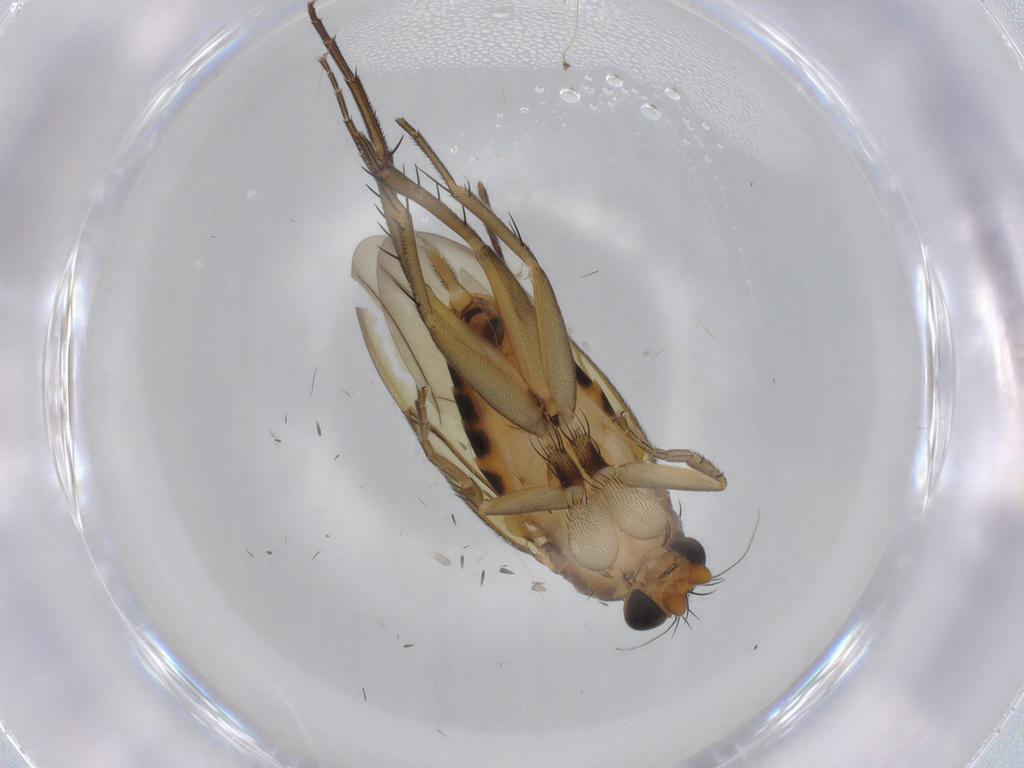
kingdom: Animalia
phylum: Arthropoda
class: Insecta
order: Diptera
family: Phoridae
